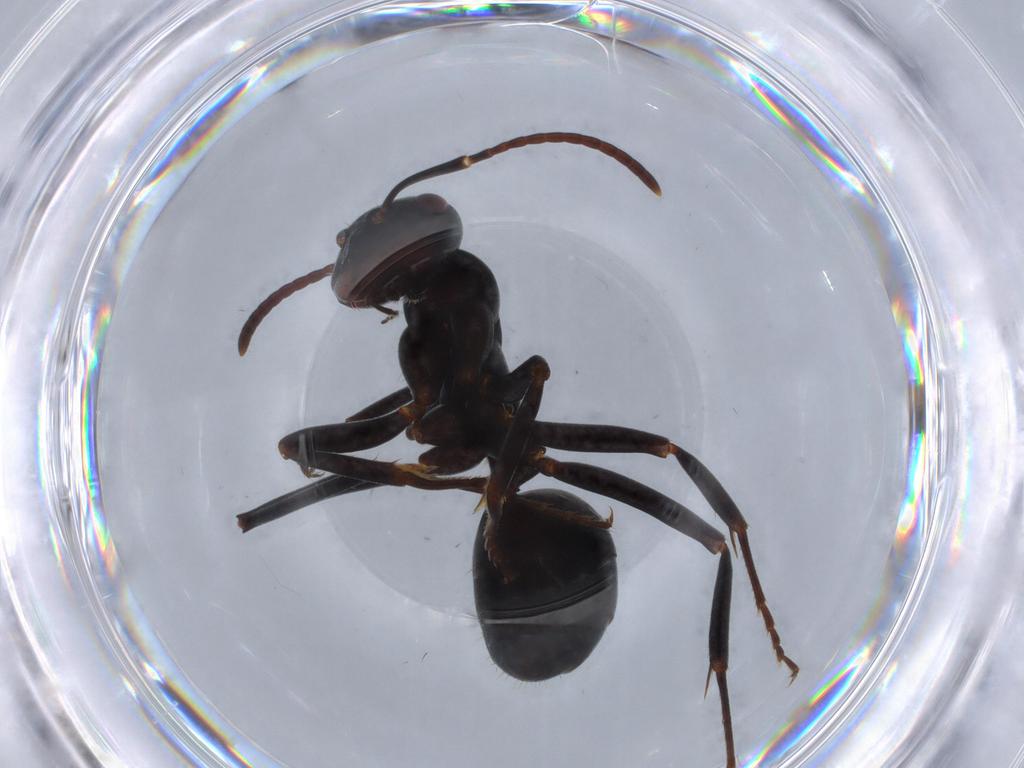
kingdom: Animalia
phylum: Arthropoda
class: Insecta
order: Hymenoptera
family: Formicidae
